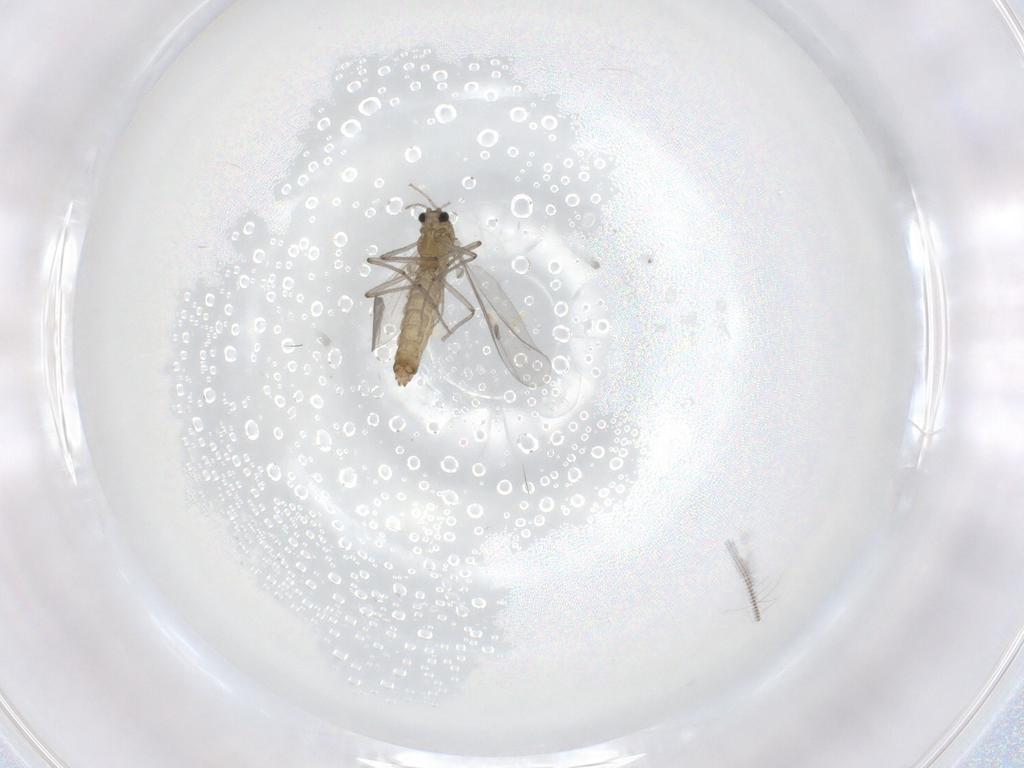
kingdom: Animalia
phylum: Arthropoda
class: Insecta
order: Diptera
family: Chironomidae
